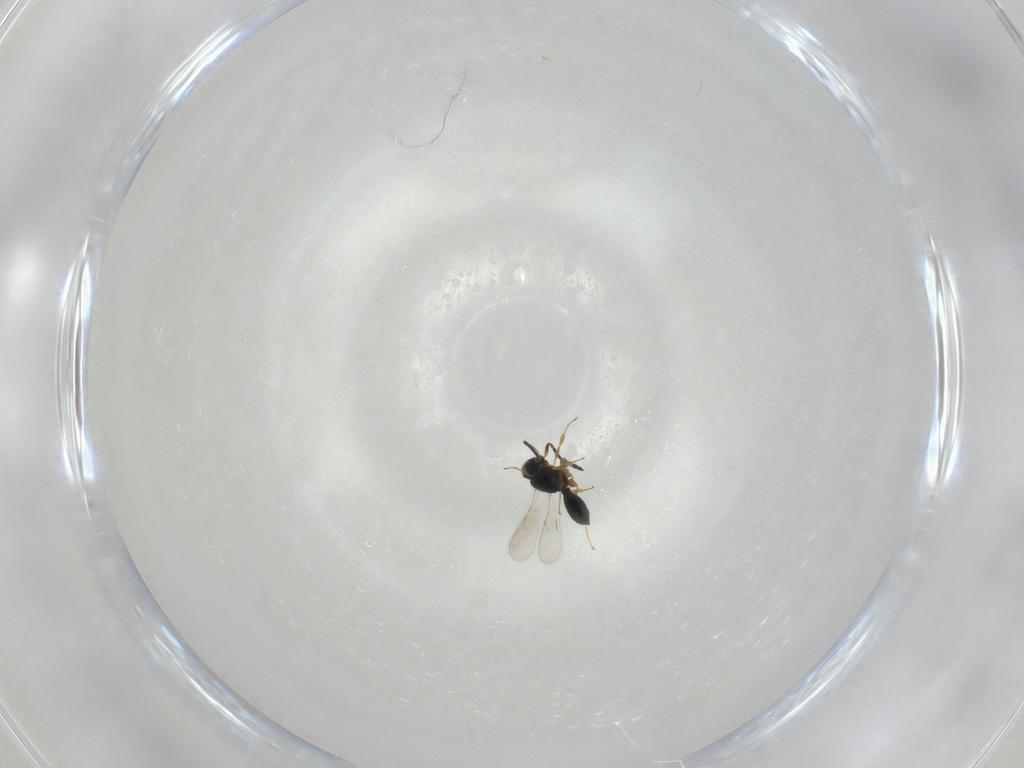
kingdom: Animalia
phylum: Arthropoda
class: Insecta
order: Hymenoptera
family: Scelionidae
